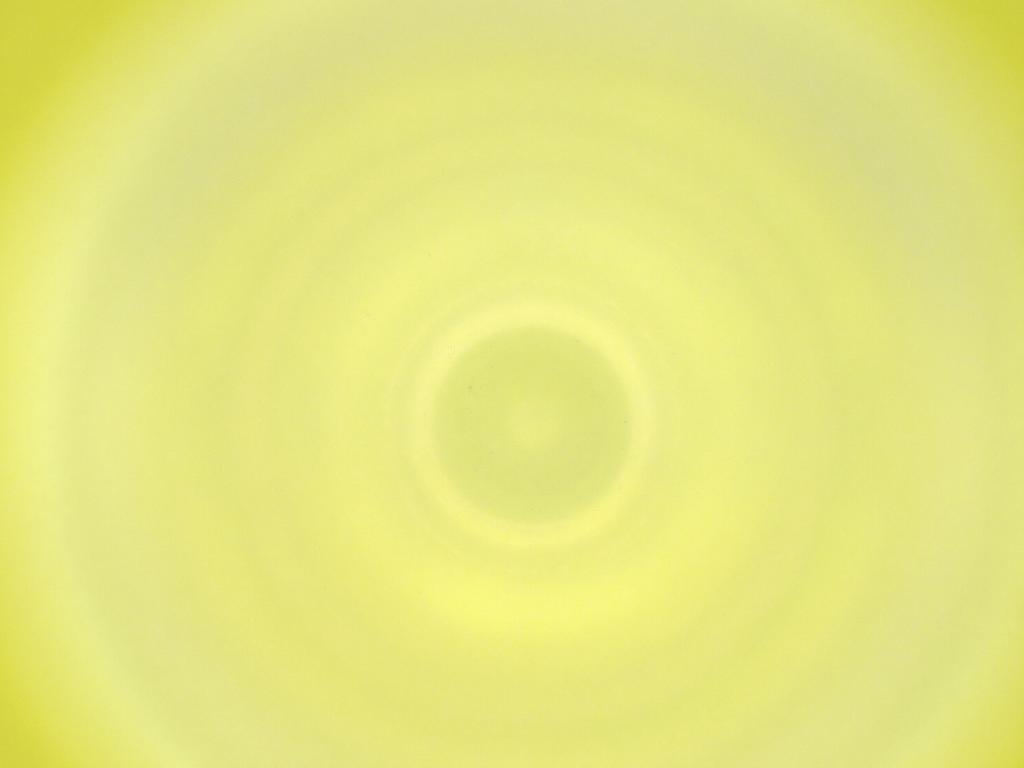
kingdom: Animalia
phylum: Arthropoda
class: Insecta
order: Diptera
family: Cecidomyiidae
